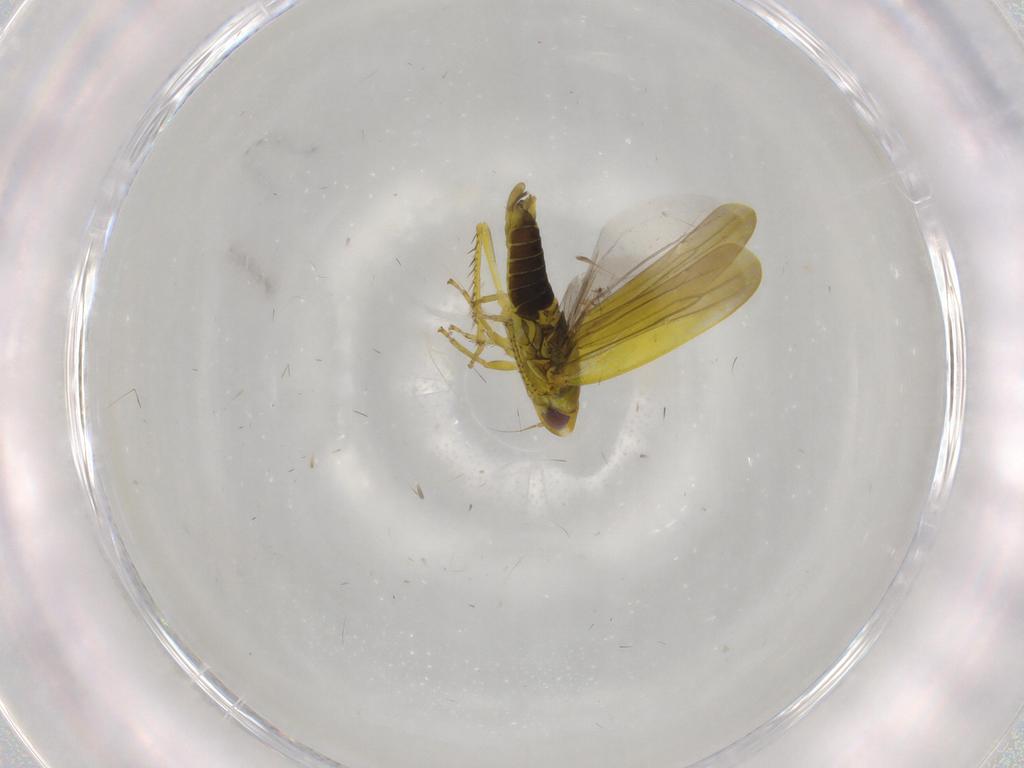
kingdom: Animalia
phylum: Arthropoda
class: Insecta
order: Hemiptera
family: Cicadellidae
